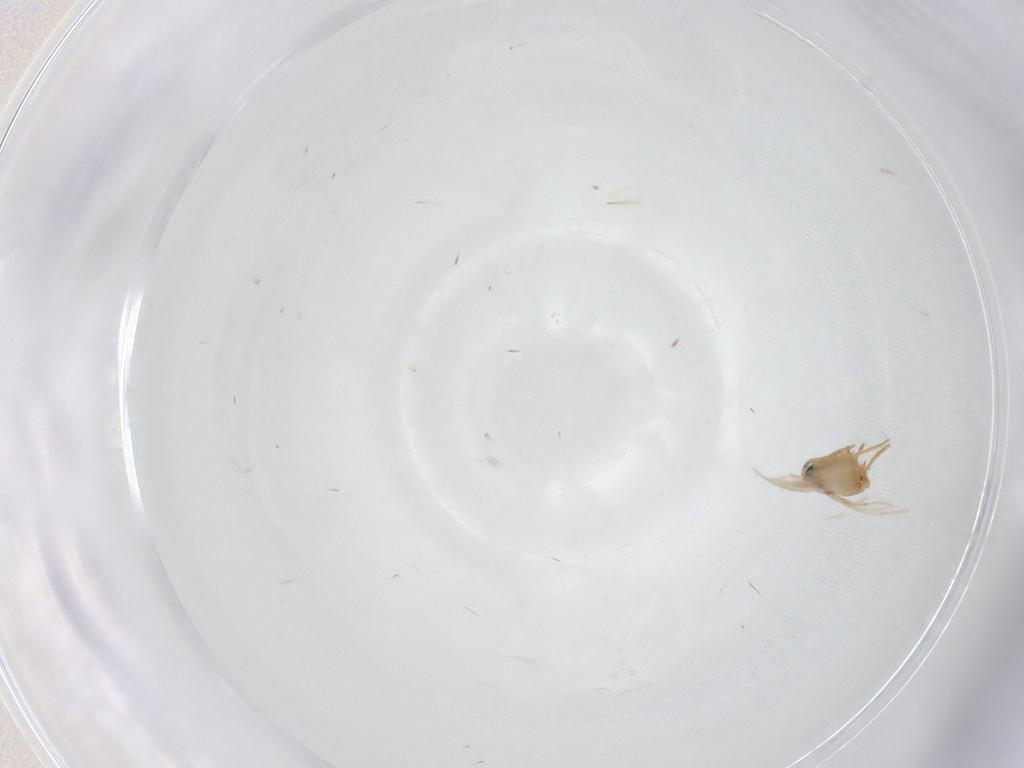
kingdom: Animalia
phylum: Arthropoda
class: Insecta
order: Lepidoptera
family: Crambidae
